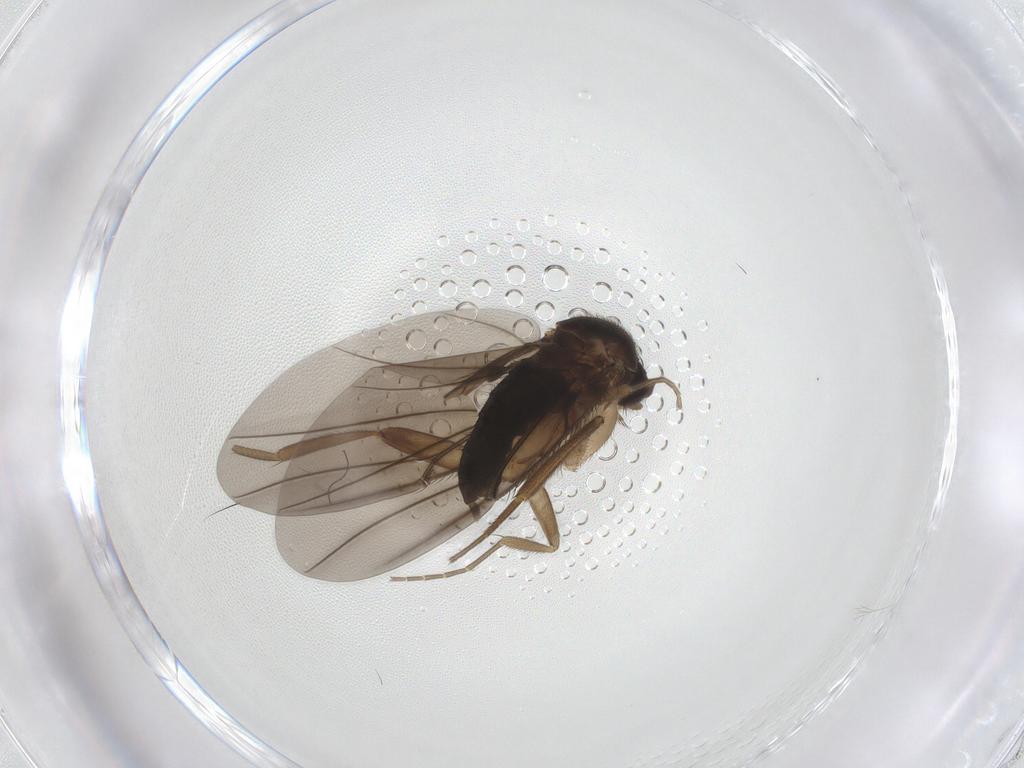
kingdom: Animalia
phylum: Arthropoda
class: Insecta
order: Diptera
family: Phoridae
